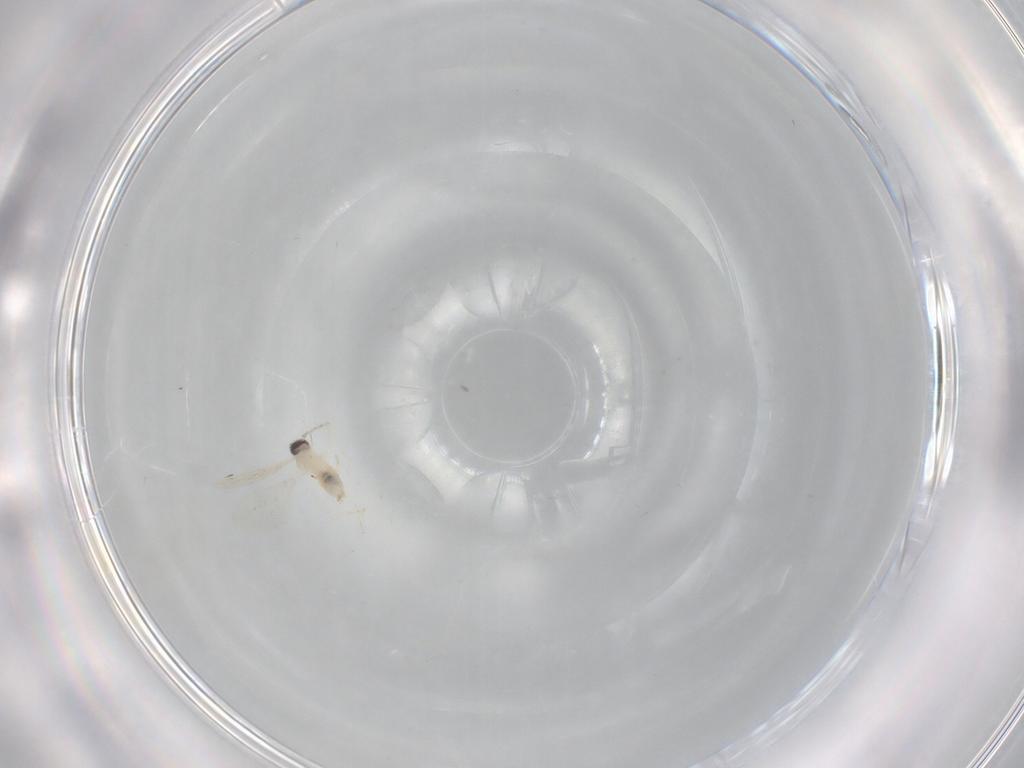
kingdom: Animalia
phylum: Arthropoda
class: Insecta
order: Diptera
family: Cecidomyiidae
